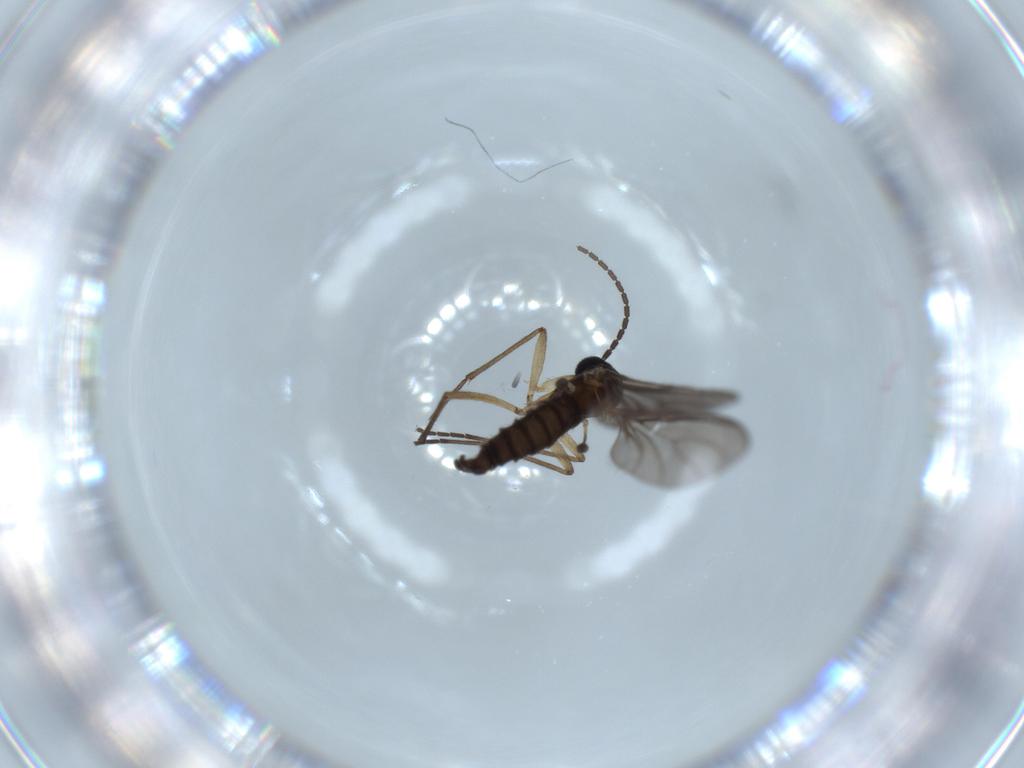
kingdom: Animalia
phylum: Arthropoda
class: Insecta
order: Diptera
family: Sciaridae
